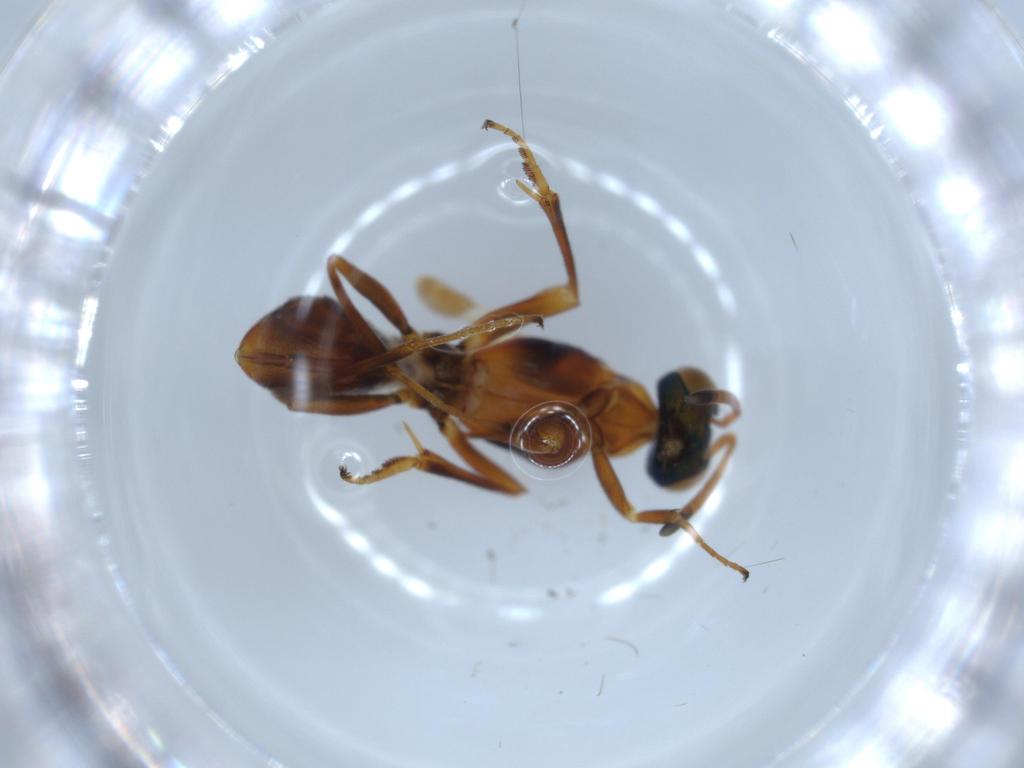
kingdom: Animalia
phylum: Arthropoda
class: Insecta
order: Hymenoptera
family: Eupelmidae
